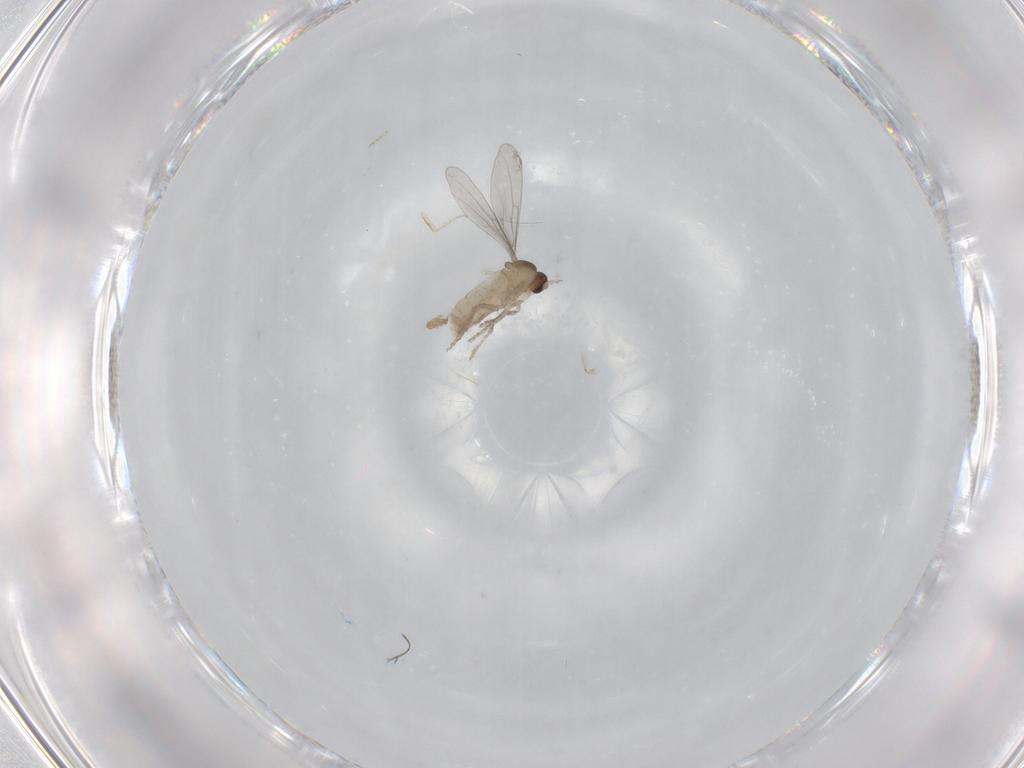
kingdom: Animalia
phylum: Arthropoda
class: Insecta
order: Diptera
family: Cecidomyiidae
